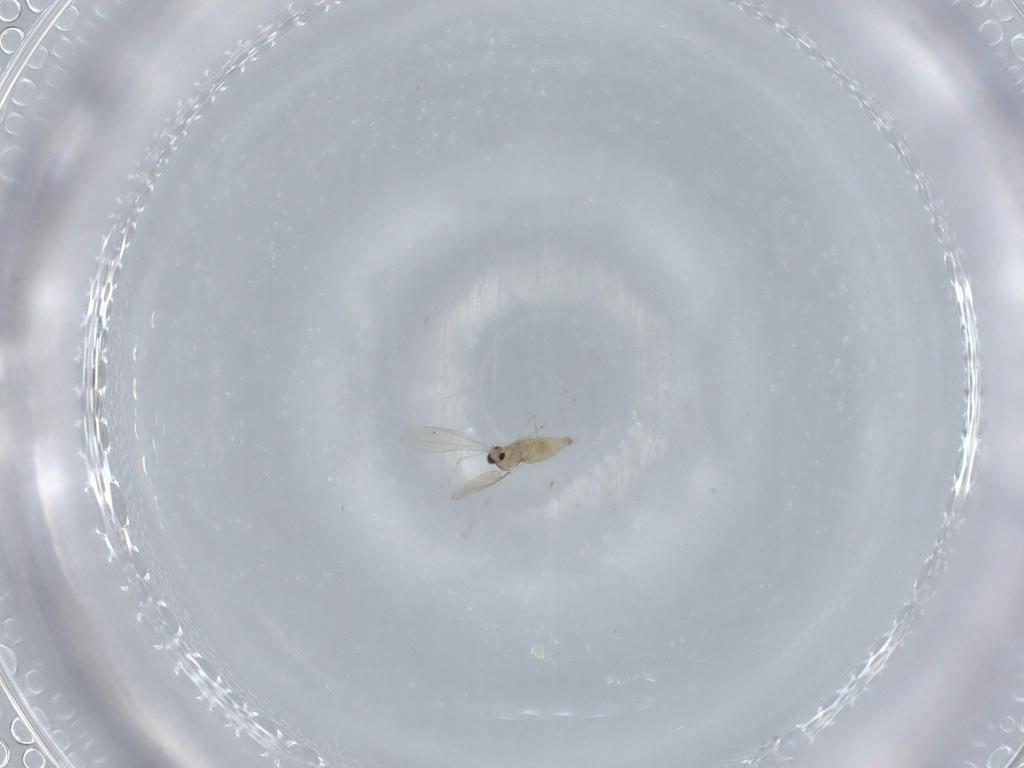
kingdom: Animalia
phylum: Arthropoda
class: Insecta
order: Diptera
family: Cecidomyiidae
